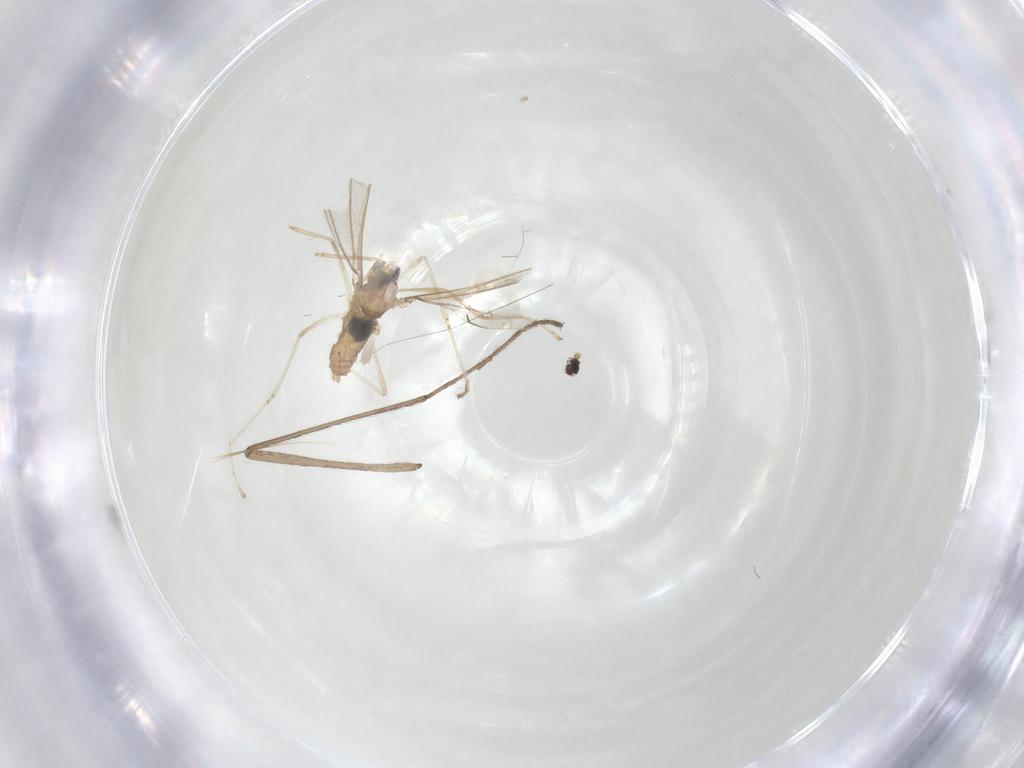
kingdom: Animalia
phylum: Arthropoda
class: Insecta
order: Diptera
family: Limoniidae
